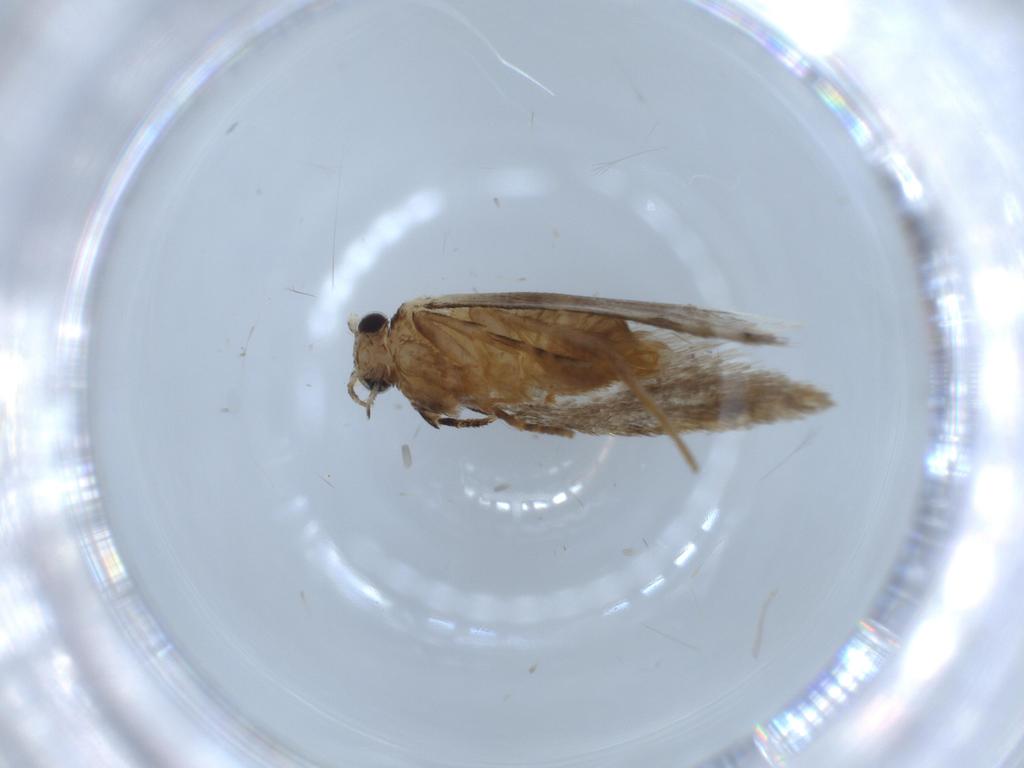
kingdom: Animalia
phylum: Arthropoda
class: Insecta
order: Lepidoptera
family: Tineidae
